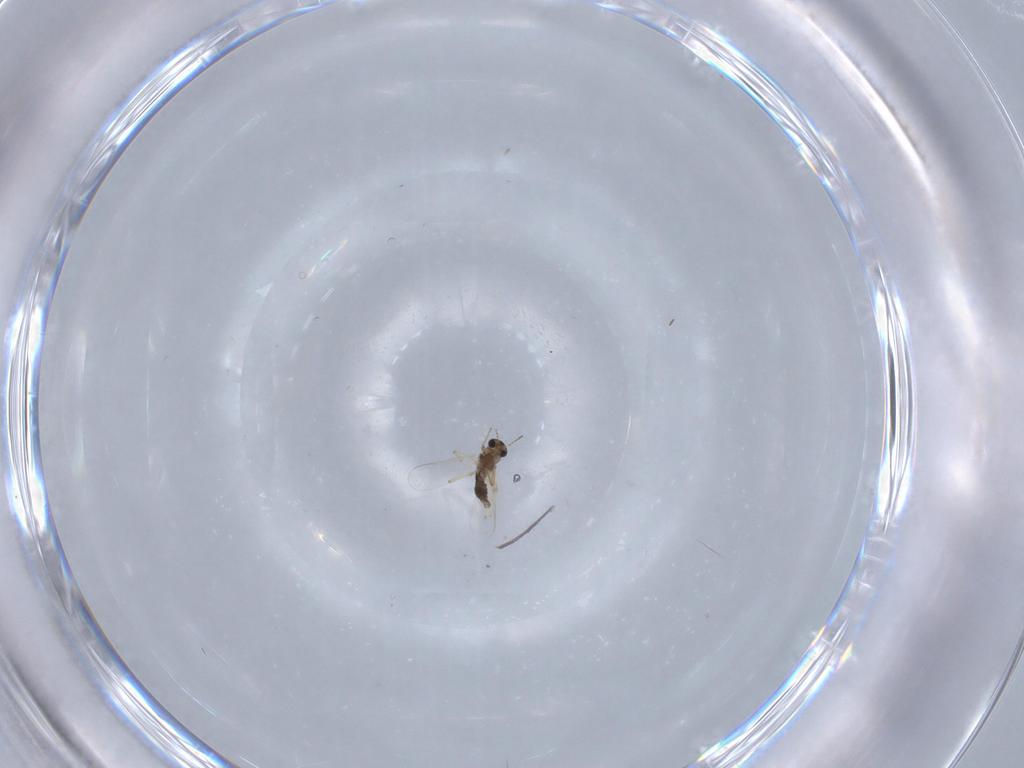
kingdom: Animalia
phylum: Arthropoda
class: Insecta
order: Diptera
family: Chironomidae
